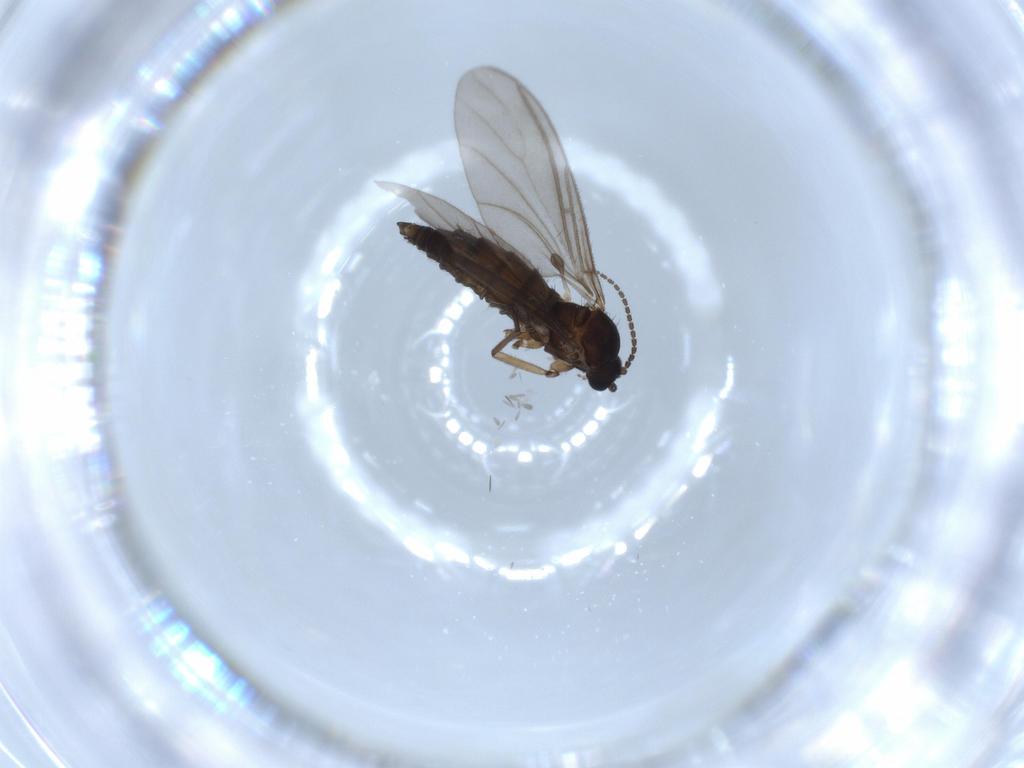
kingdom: Animalia
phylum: Arthropoda
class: Insecta
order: Diptera
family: Sciaridae
